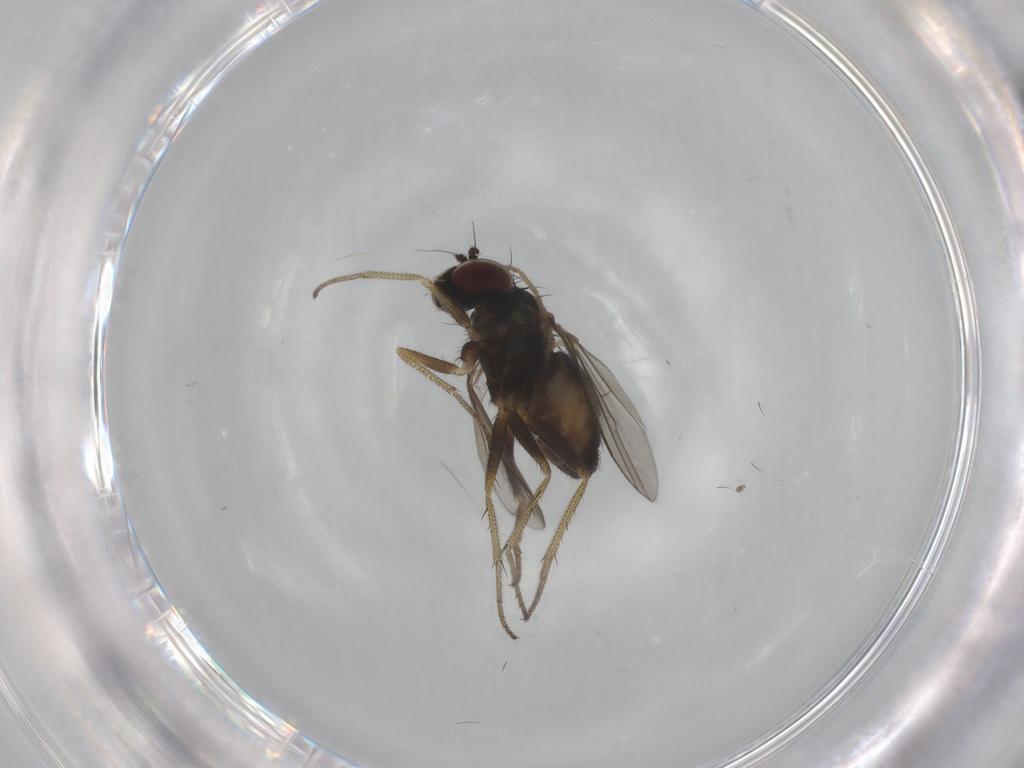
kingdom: Animalia
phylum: Arthropoda
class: Insecta
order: Diptera
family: Chironomidae
